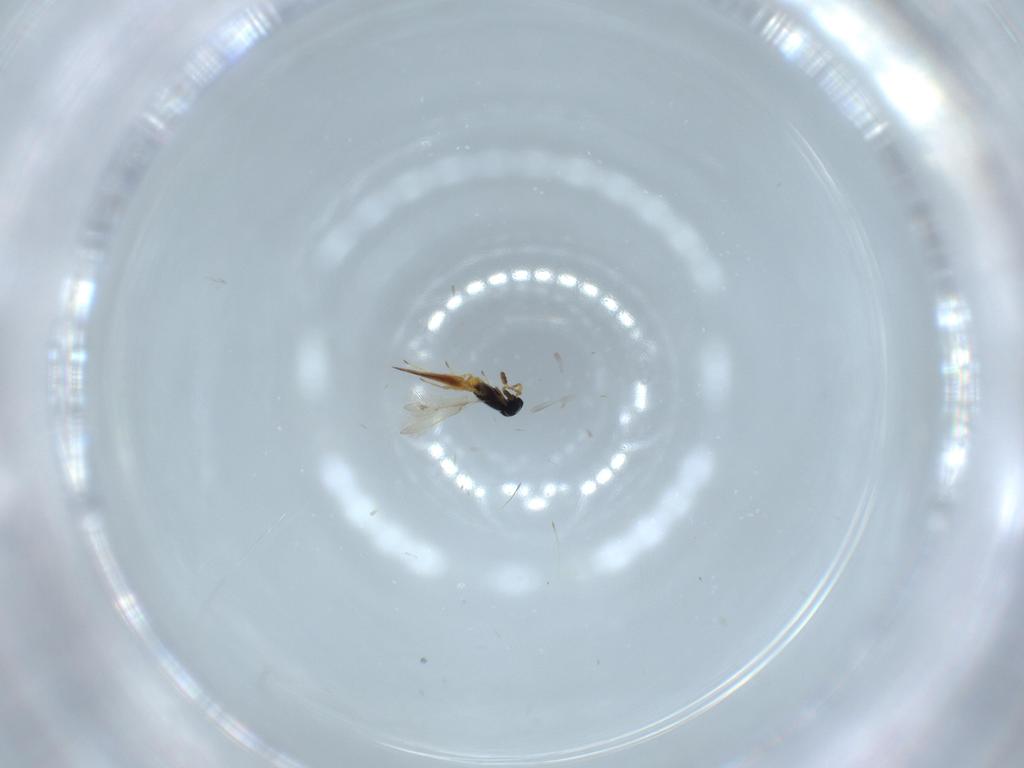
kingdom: Animalia
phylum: Arthropoda
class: Insecta
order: Hymenoptera
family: Scelionidae
